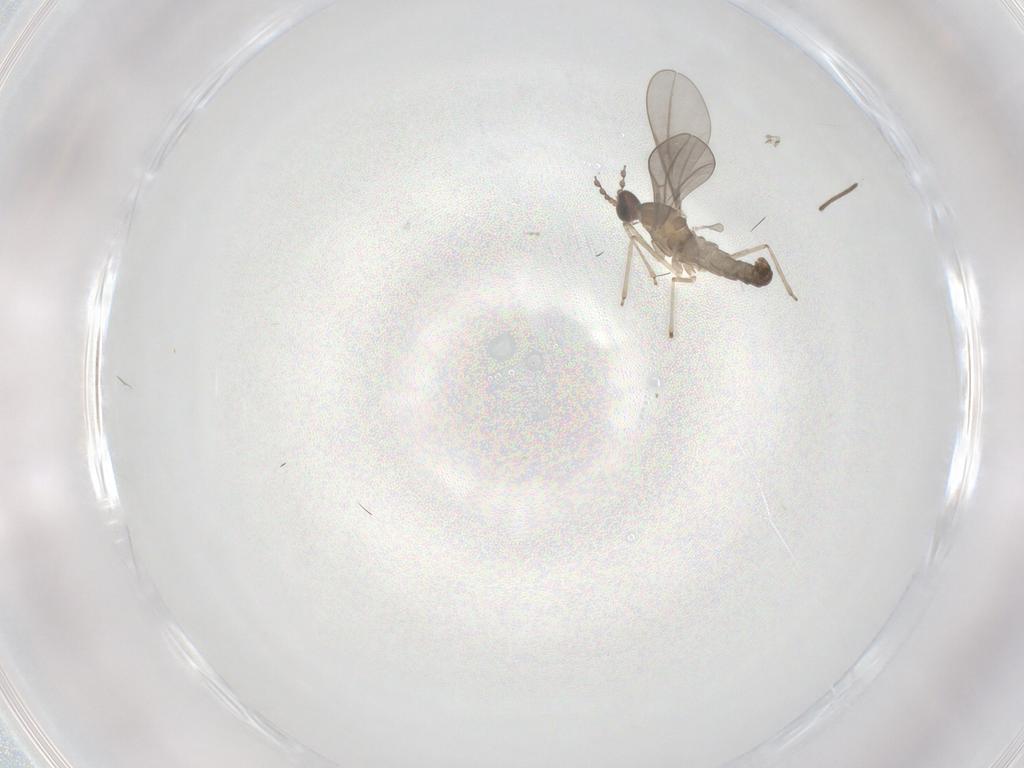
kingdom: Animalia
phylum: Arthropoda
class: Insecta
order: Diptera
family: Chironomidae
